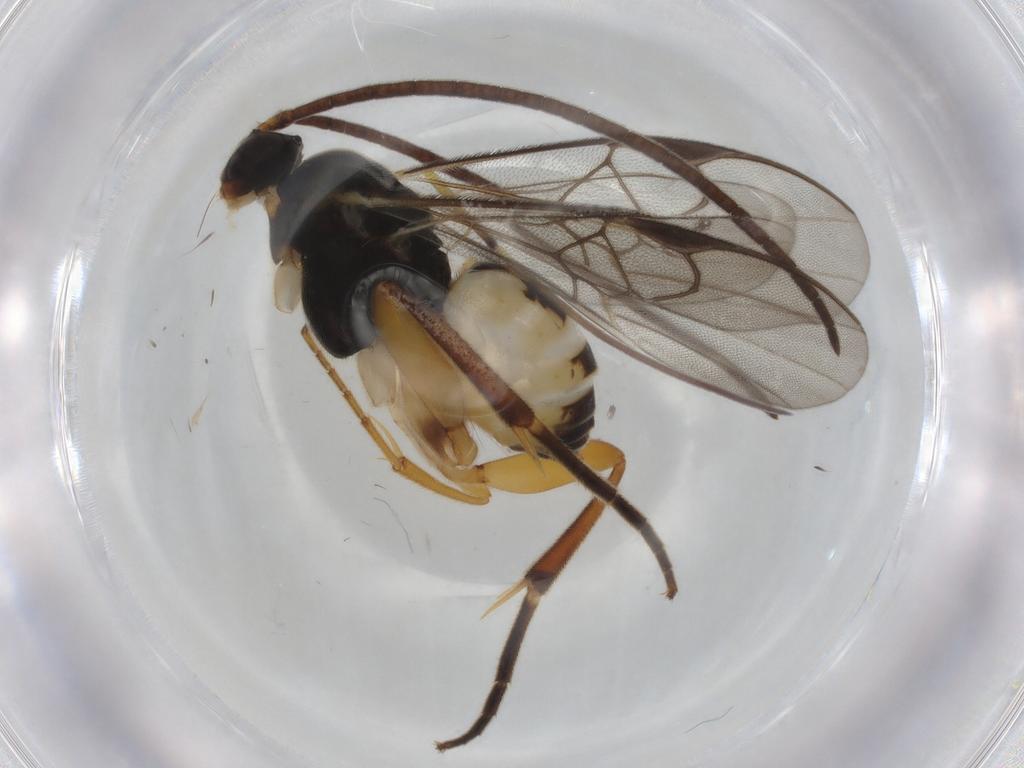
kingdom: Animalia
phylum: Arthropoda
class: Insecta
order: Hymenoptera
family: Braconidae
